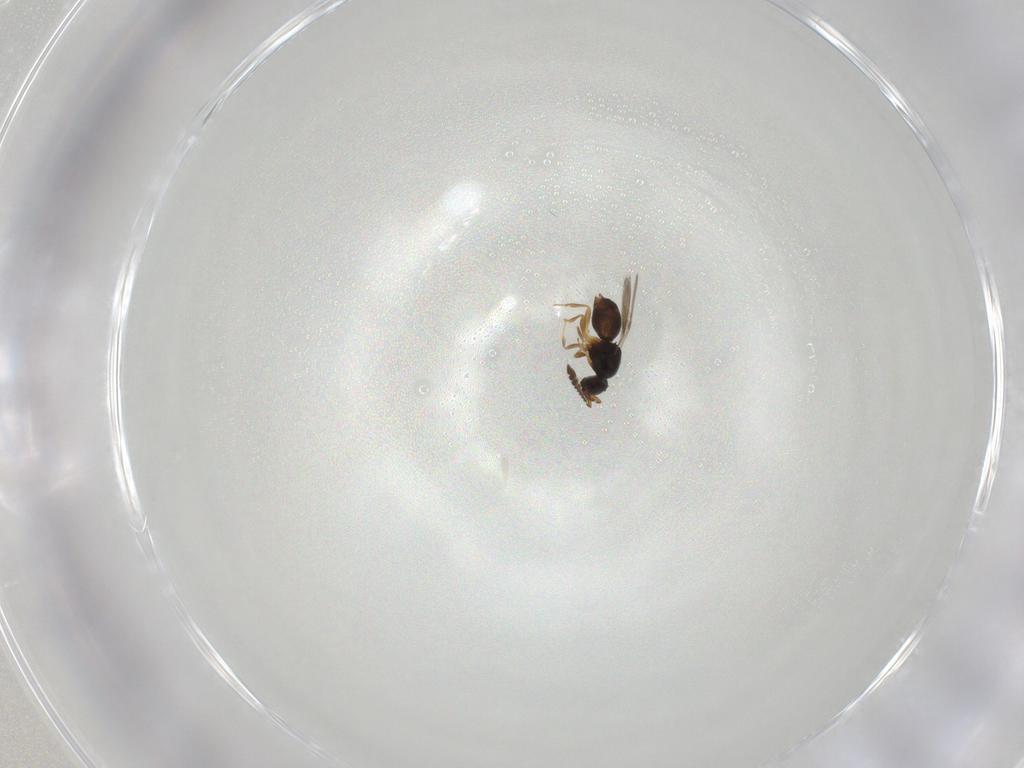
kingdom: Animalia
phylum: Arthropoda
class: Insecta
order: Hymenoptera
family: Ceraphronidae
